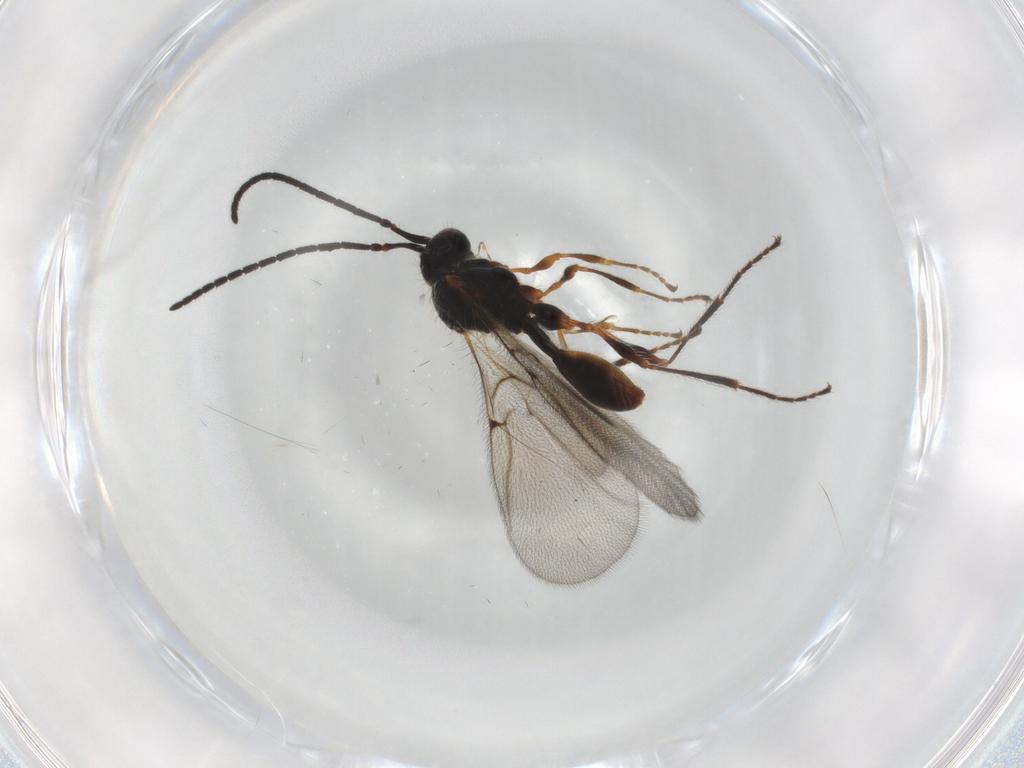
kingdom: Animalia
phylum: Arthropoda
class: Insecta
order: Hymenoptera
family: Diapriidae
